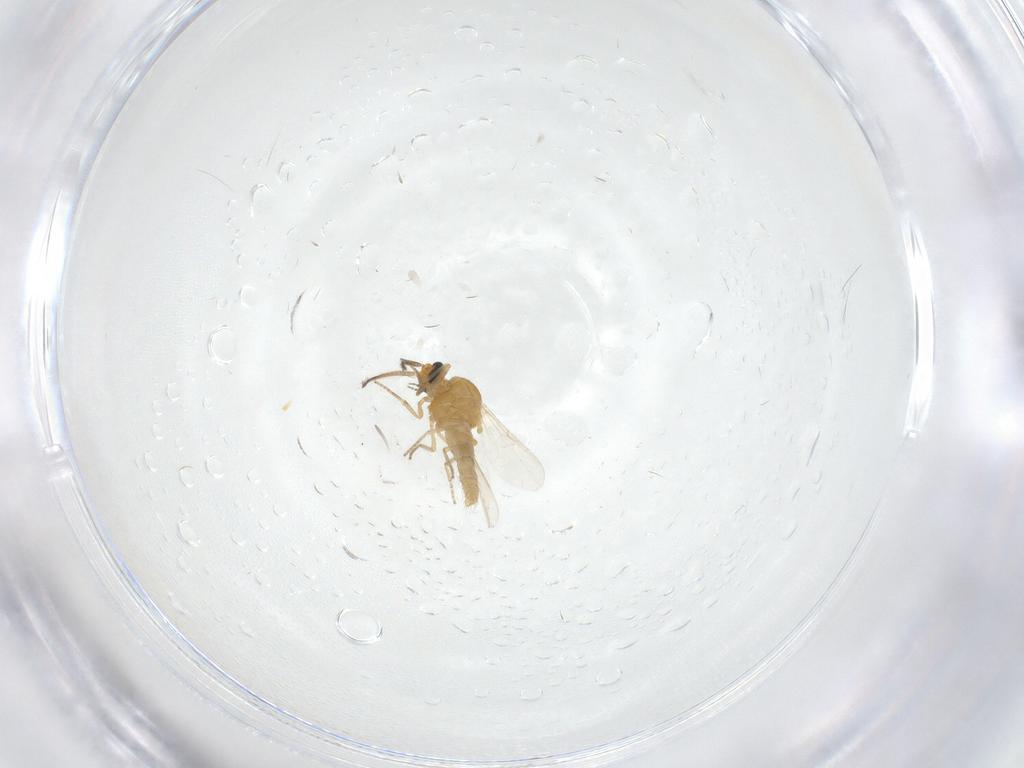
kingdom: Animalia
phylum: Arthropoda
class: Insecta
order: Diptera
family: Ceratopogonidae
